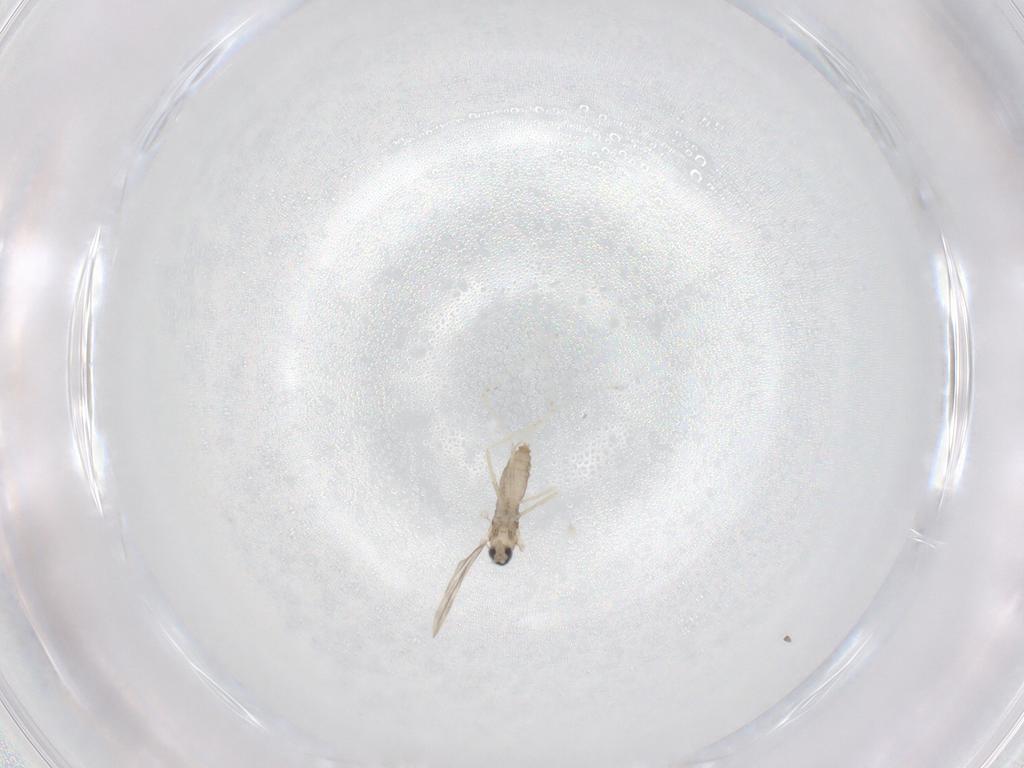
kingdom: Animalia
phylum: Arthropoda
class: Insecta
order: Diptera
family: Cecidomyiidae
